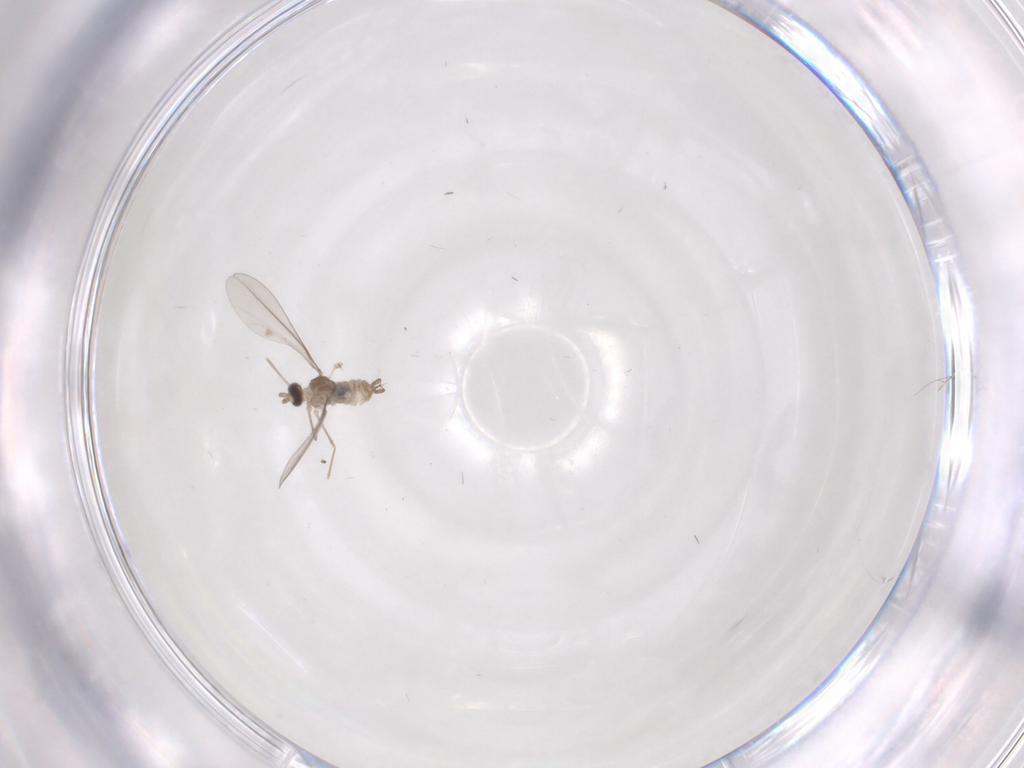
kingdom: Animalia
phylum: Arthropoda
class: Insecta
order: Diptera
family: Cecidomyiidae
